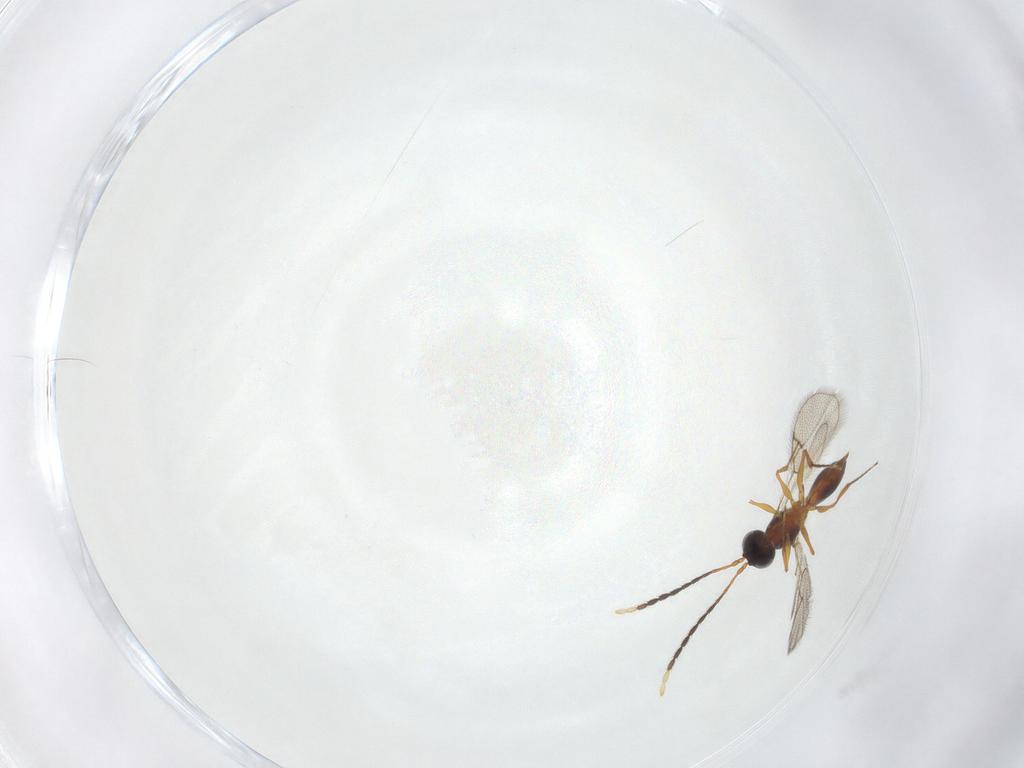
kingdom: Animalia
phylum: Arthropoda
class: Insecta
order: Hymenoptera
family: Figitidae
